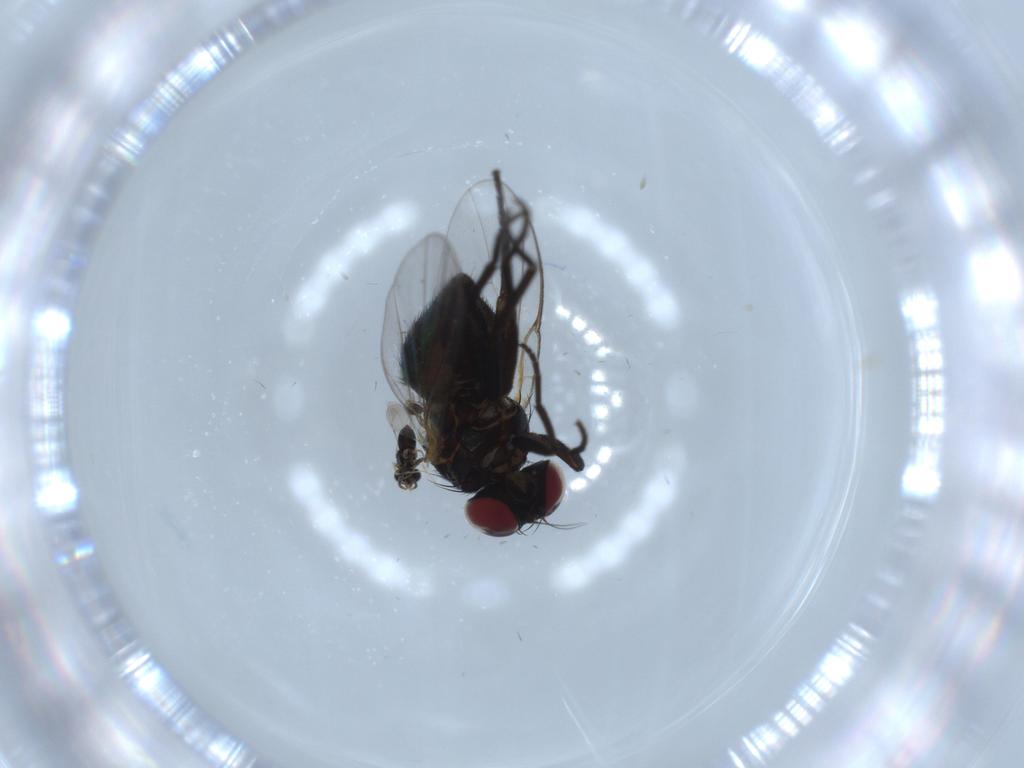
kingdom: Animalia
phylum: Arthropoda
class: Insecta
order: Diptera
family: Agromyzidae
